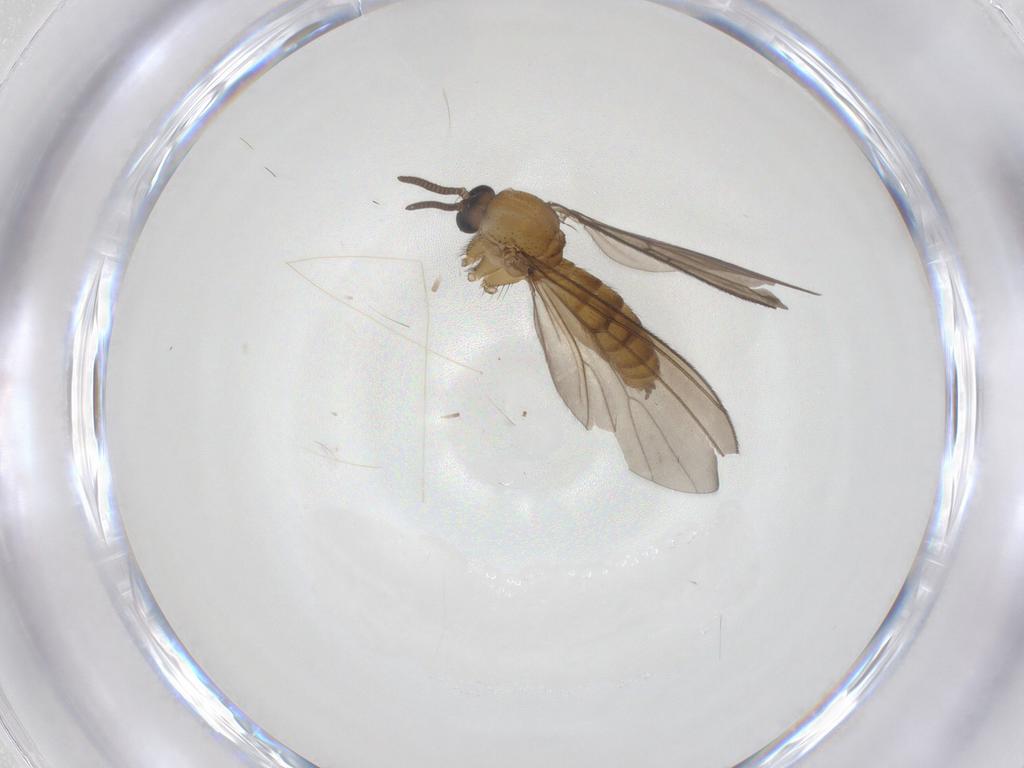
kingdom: Animalia
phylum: Arthropoda
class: Insecta
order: Diptera
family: Mycetophilidae
